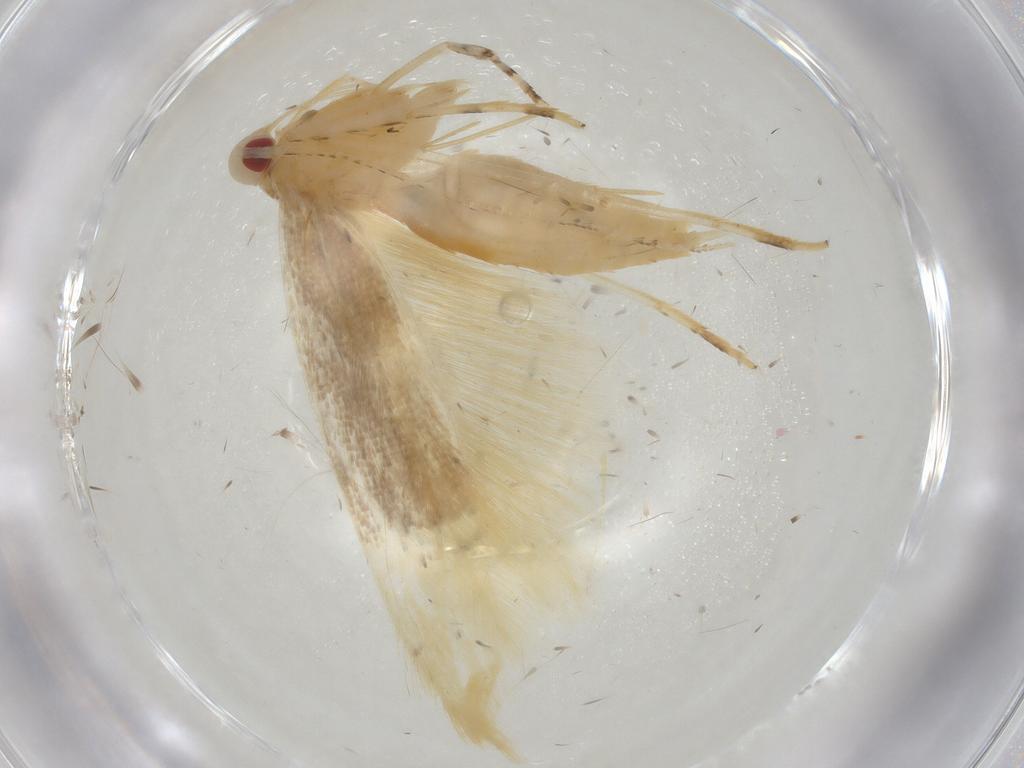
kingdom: Animalia
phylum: Arthropoda
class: Insecta
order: Lepidoptera
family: Cosmopterigidae
